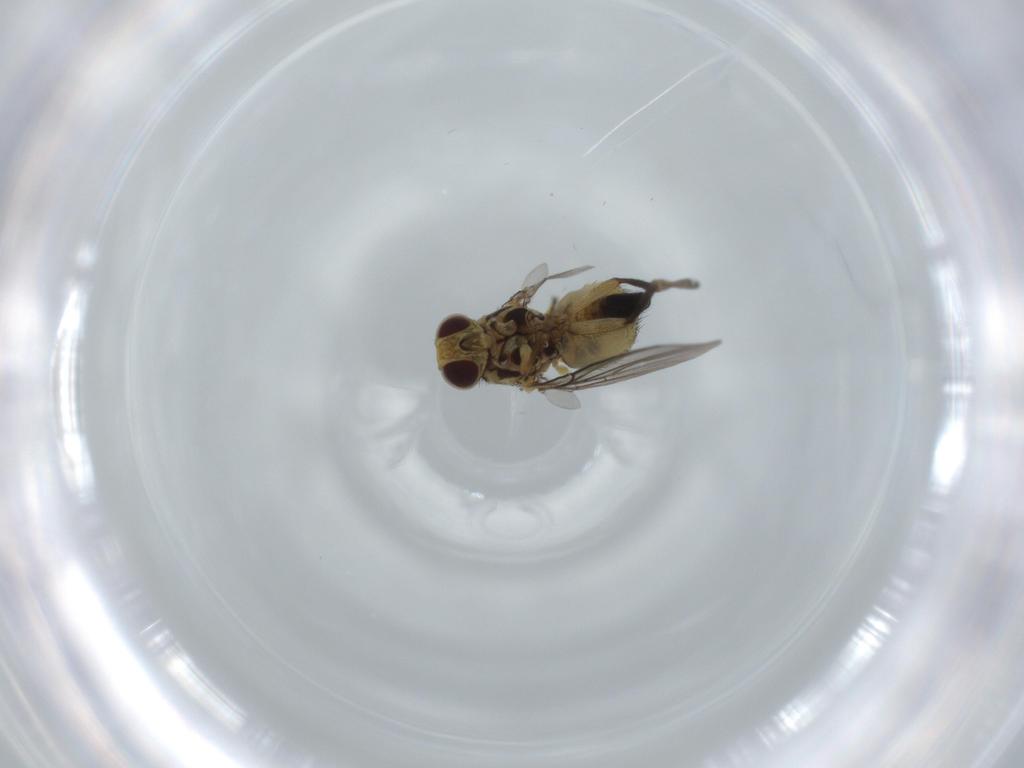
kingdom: Animalia
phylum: Arthropoda
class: Insecta
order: Diptera
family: Agromyzidae
